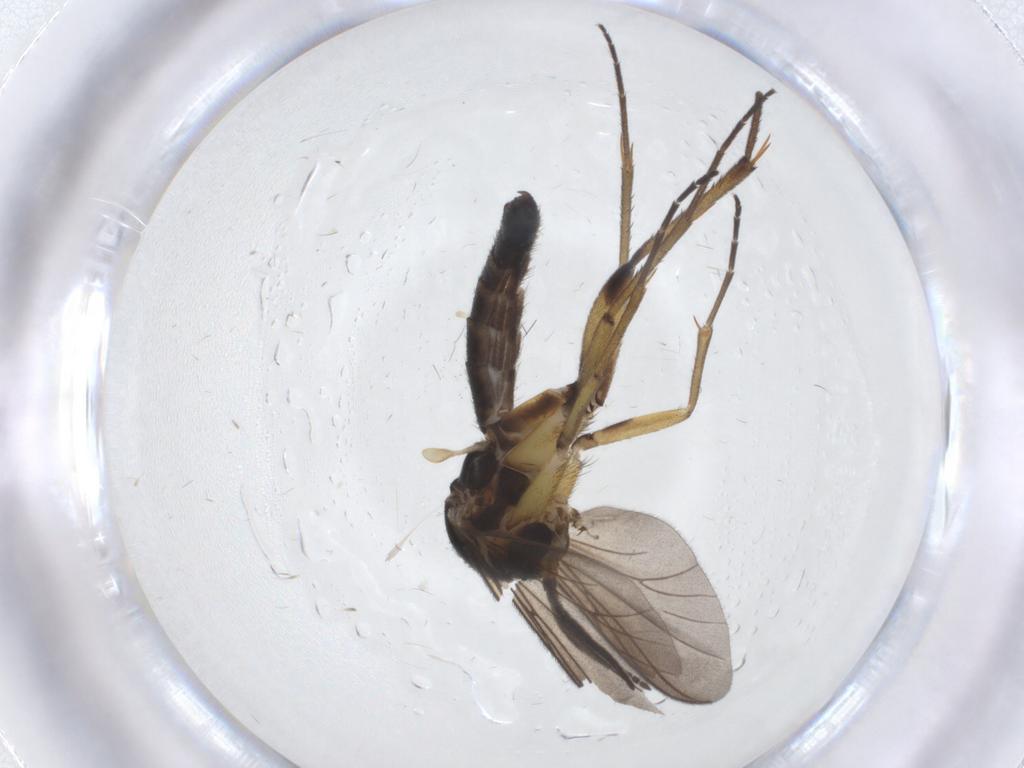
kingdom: Animalia
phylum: Arthropoda
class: Insecta
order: Diptera
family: Mycetophilidae
